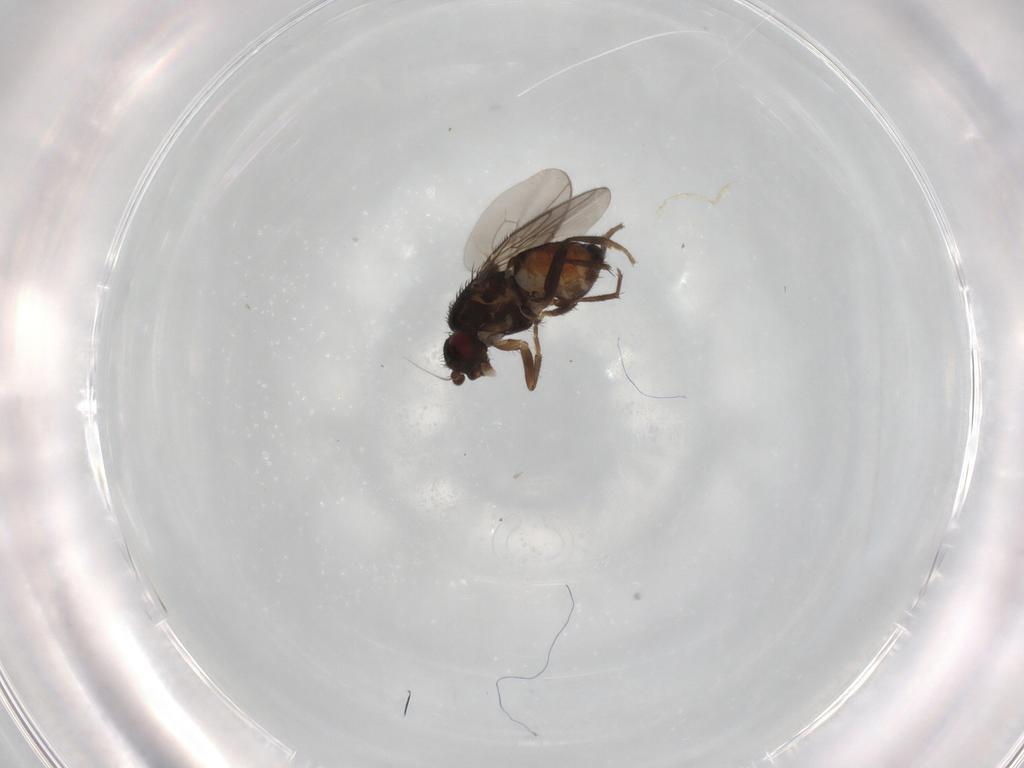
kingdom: Animalia
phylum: Arthropoda
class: Insecta
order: Diptera
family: Sphaeroceridae
